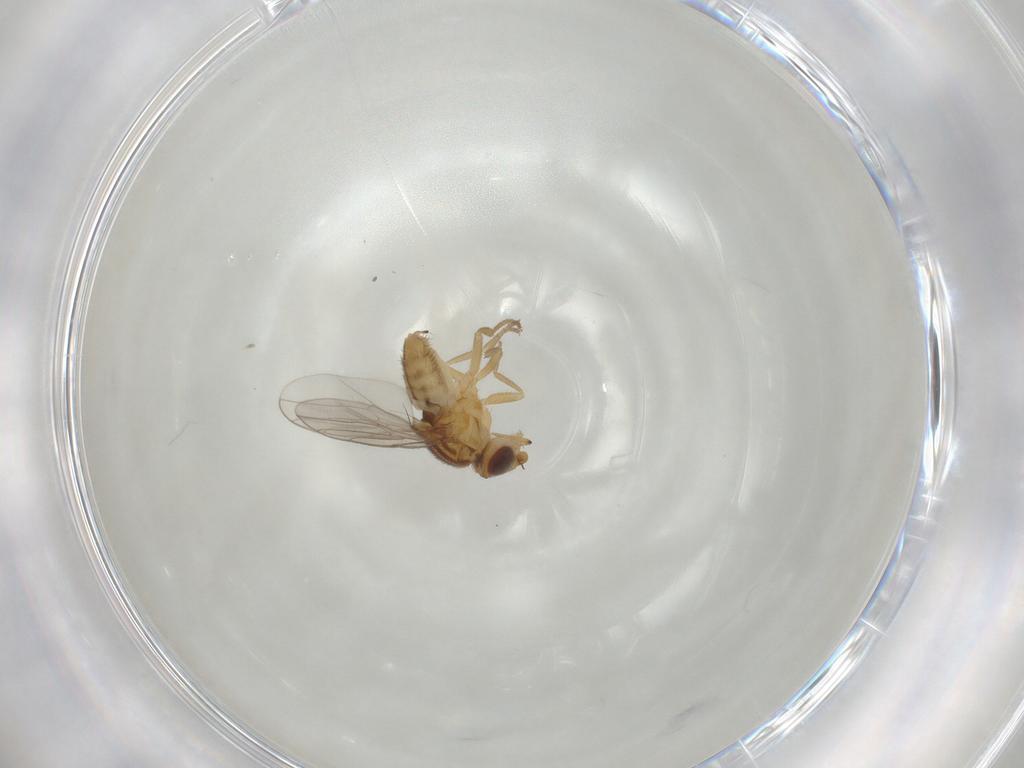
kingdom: Animalia
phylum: Arthropoda
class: Insecta
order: Diptera
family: Chloropidae
